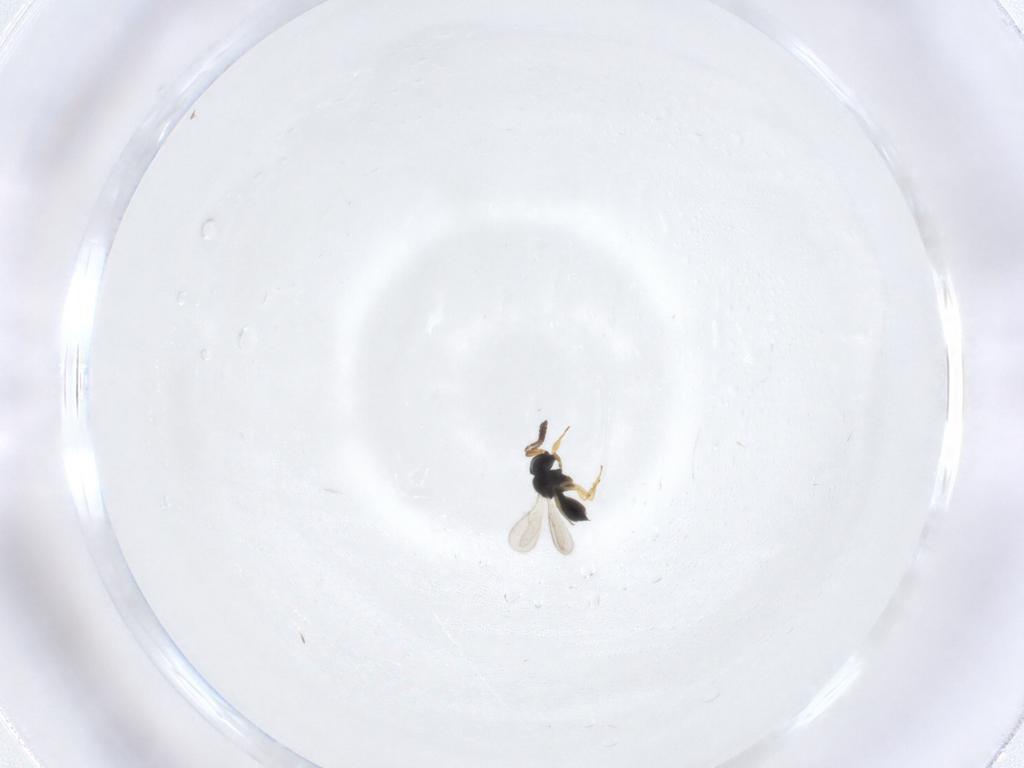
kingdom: Animalia
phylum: Arthropoda
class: Insecta
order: Hymenoptera
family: Scelionidae
